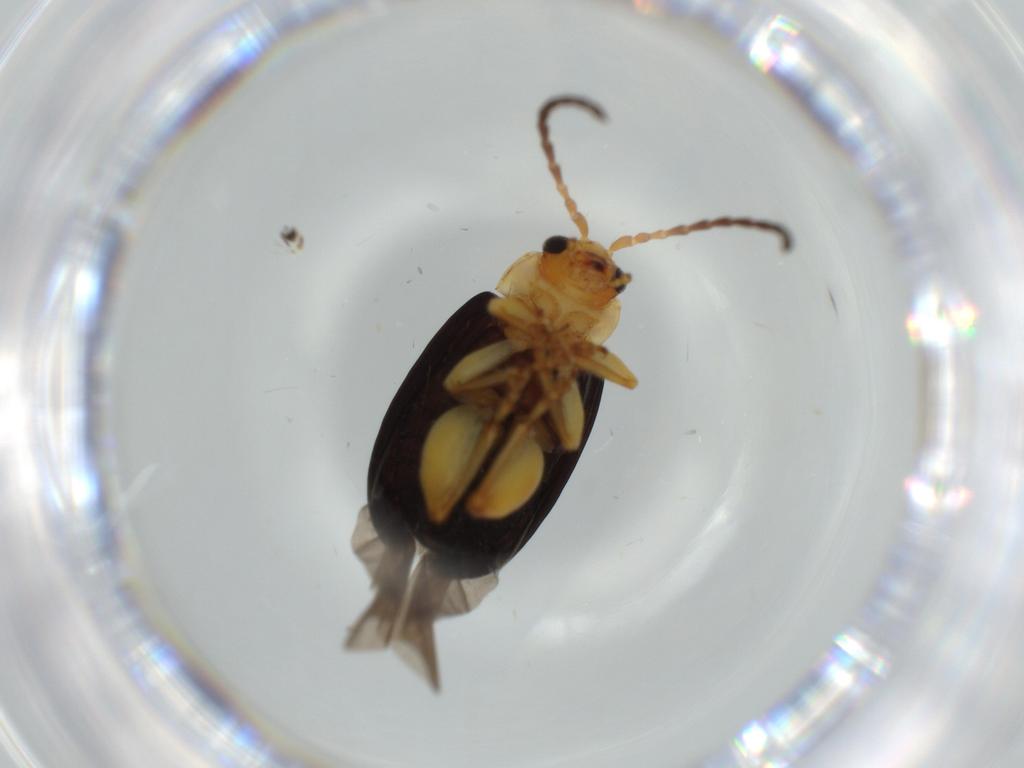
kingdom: Animalia
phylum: Arthropoda
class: Insecta
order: Coleoptera
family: Chrysomelidae
